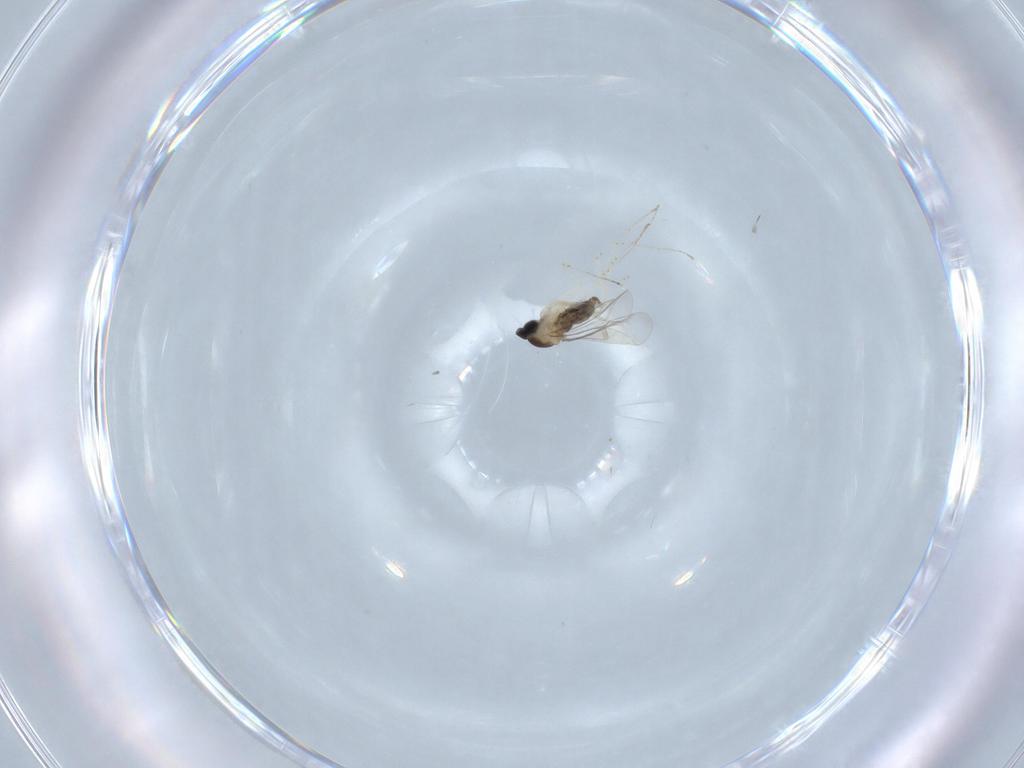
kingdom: Animalia
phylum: Arthropoda
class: Insecta
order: Diptera
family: Cecidomyiidae
